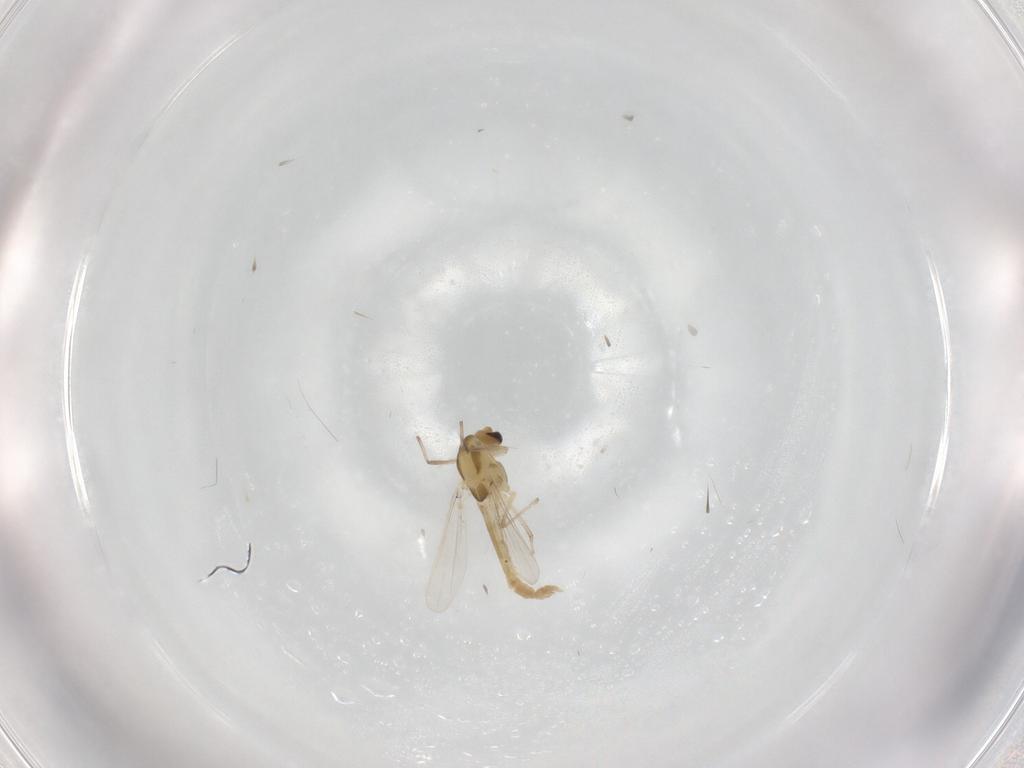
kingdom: Animalia
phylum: Arthropoda
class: Insecta
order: Diptera
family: Chironomidae
